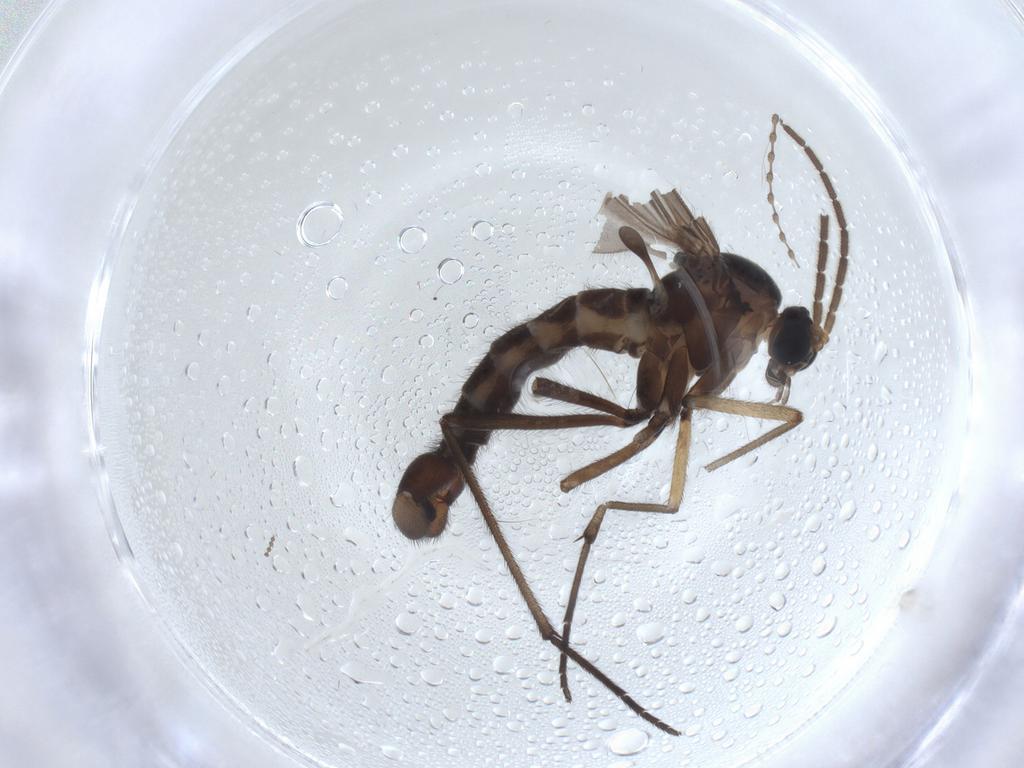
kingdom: Animalia
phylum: Arthropoda
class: Insecta
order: Diptera
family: Sciaridae
